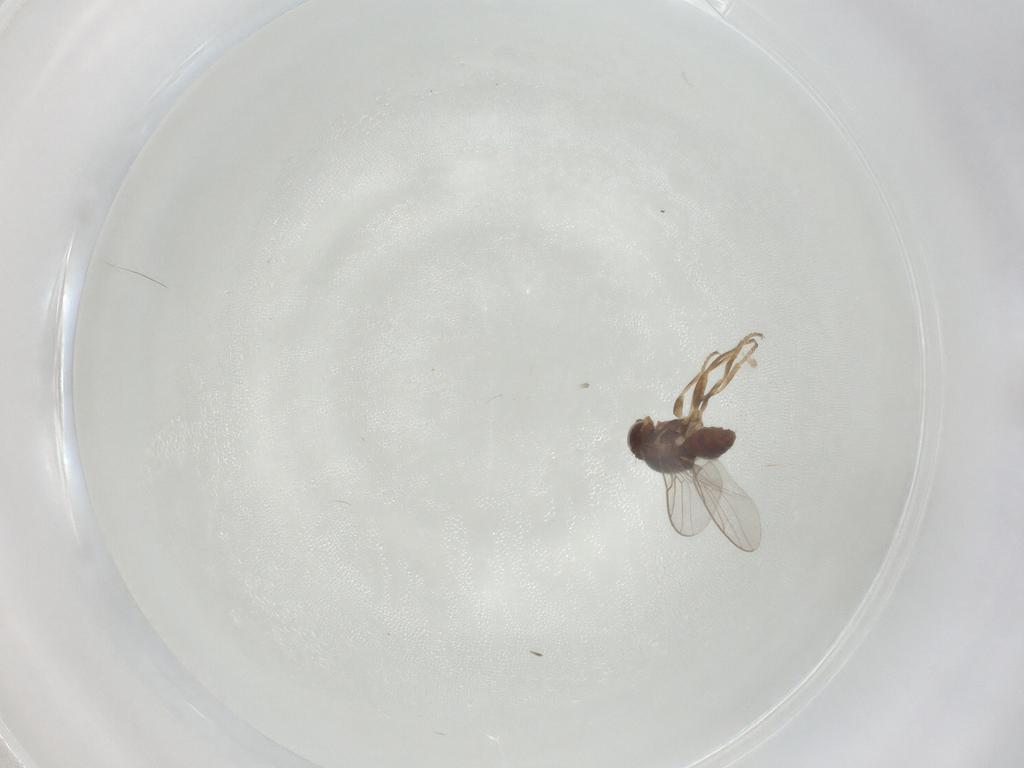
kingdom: Animalia
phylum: Arthropoda
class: Insecta
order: Diptera
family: Chloropidae
